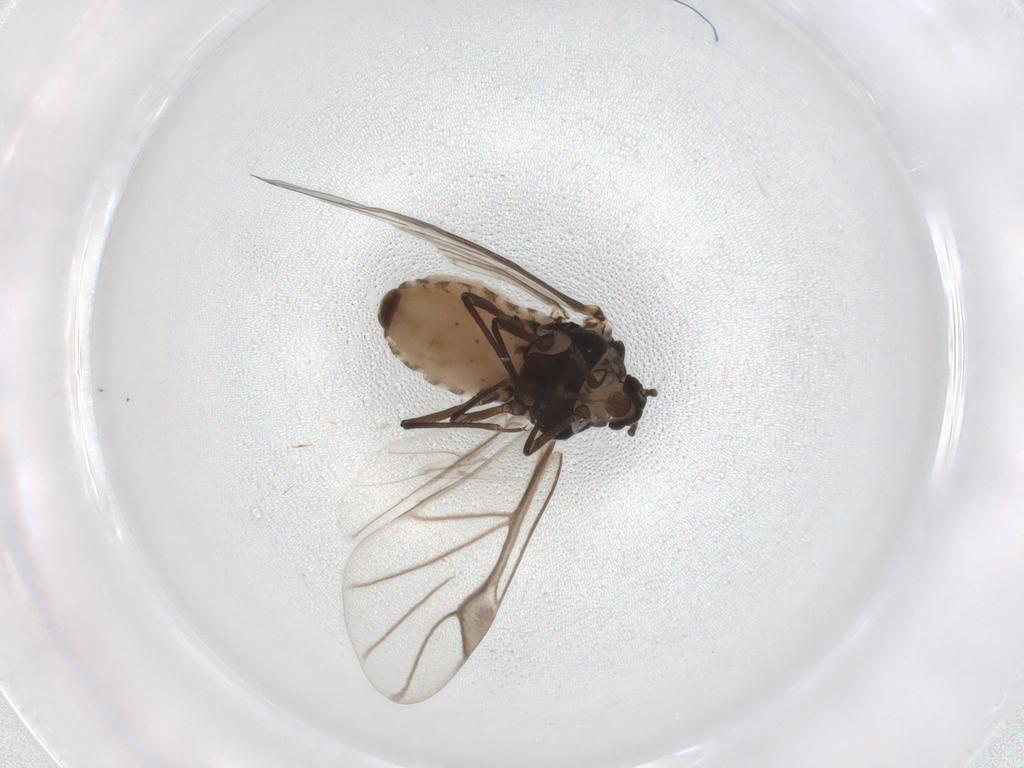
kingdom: Animalia
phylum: Arthropoda
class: Insecta
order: Hemiptera
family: Aphididae
